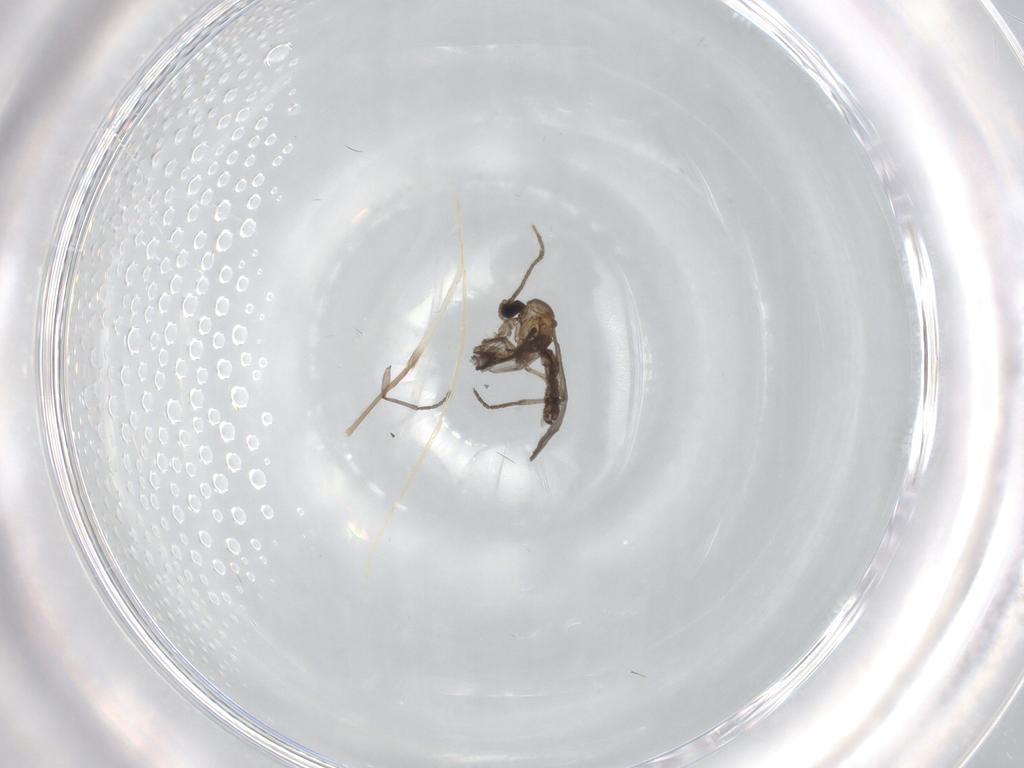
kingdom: Animalia
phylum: Arthropoda
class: Insecta
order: Diptera
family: Sciaridae
